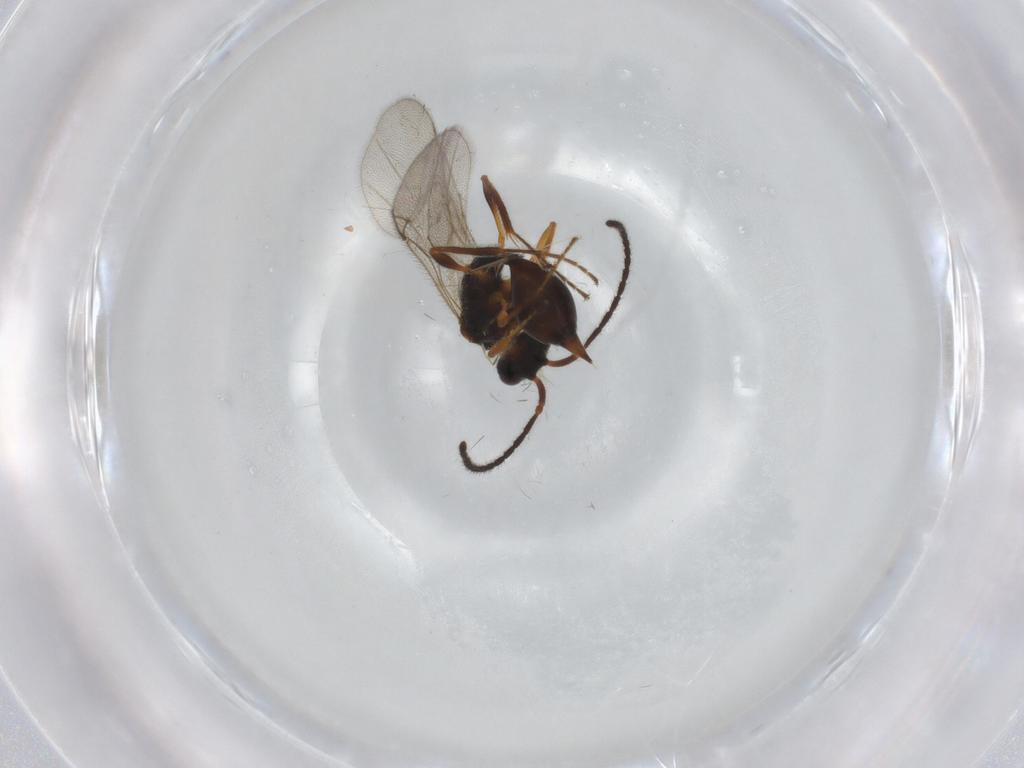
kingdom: Animalia
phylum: Arthropoda
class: Insecta
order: Hymenoptera
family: Diapriidae
